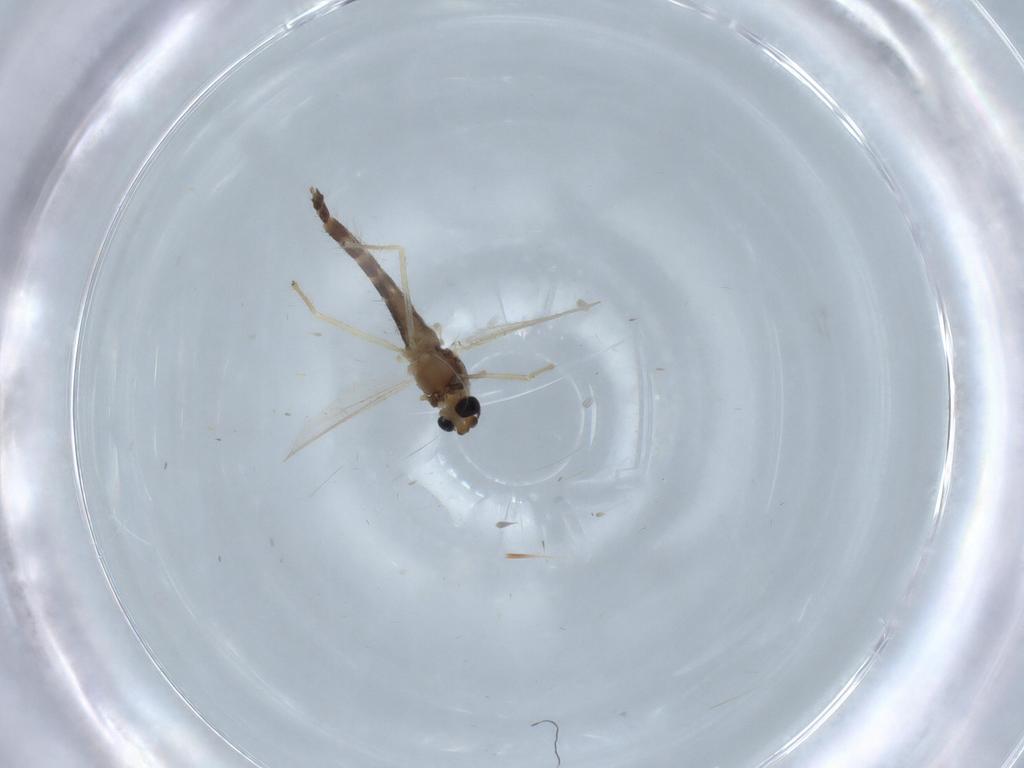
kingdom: Animalia
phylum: Arthropoda
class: Insecta
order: Diptera
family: Chironomidae
